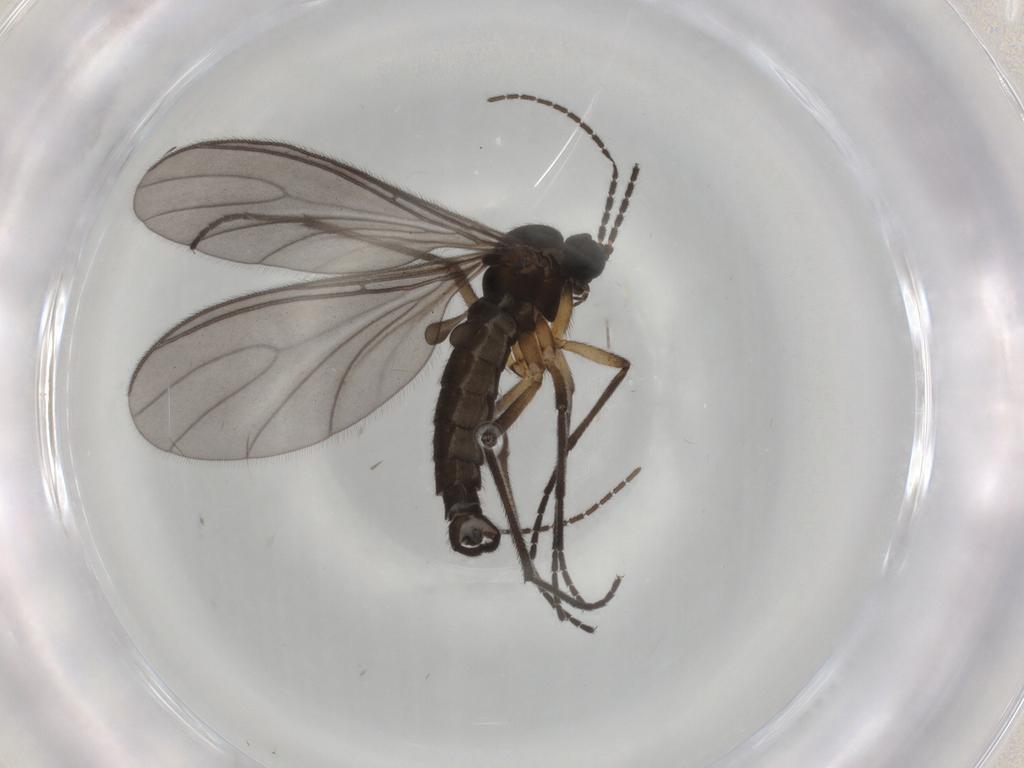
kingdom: Animalia
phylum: Arthropoda
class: Insecta
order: Diptera
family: Sciaridae
